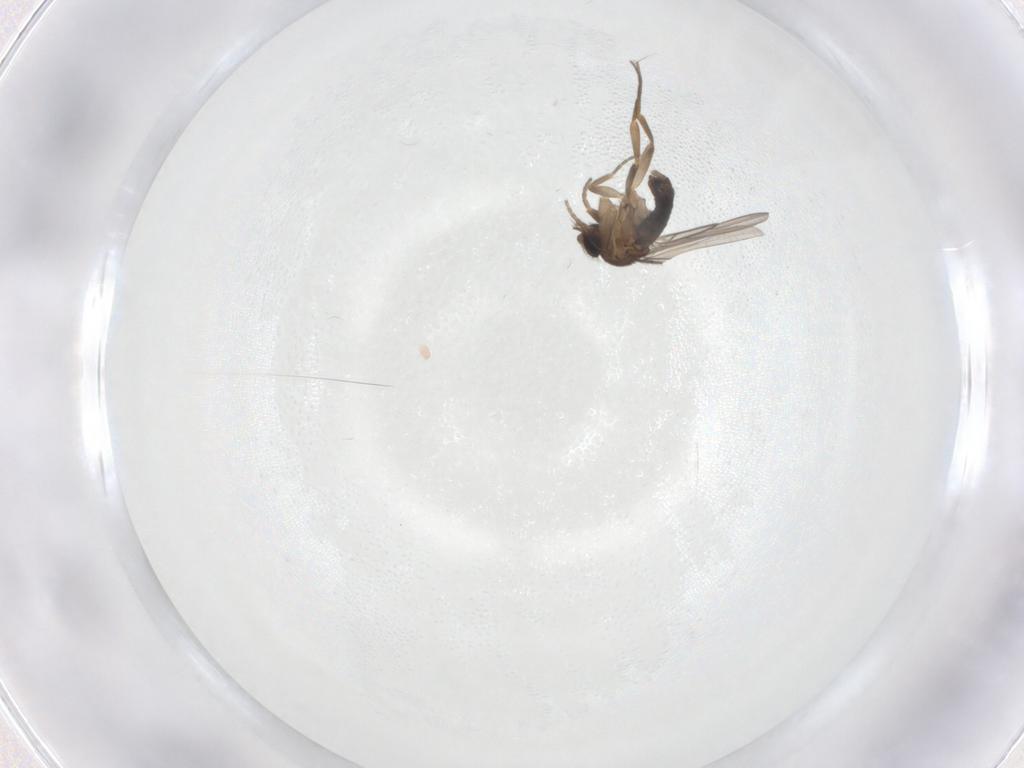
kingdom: Animalia
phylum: Arthropoda
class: Insecta
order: Diptera
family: Phoridae
